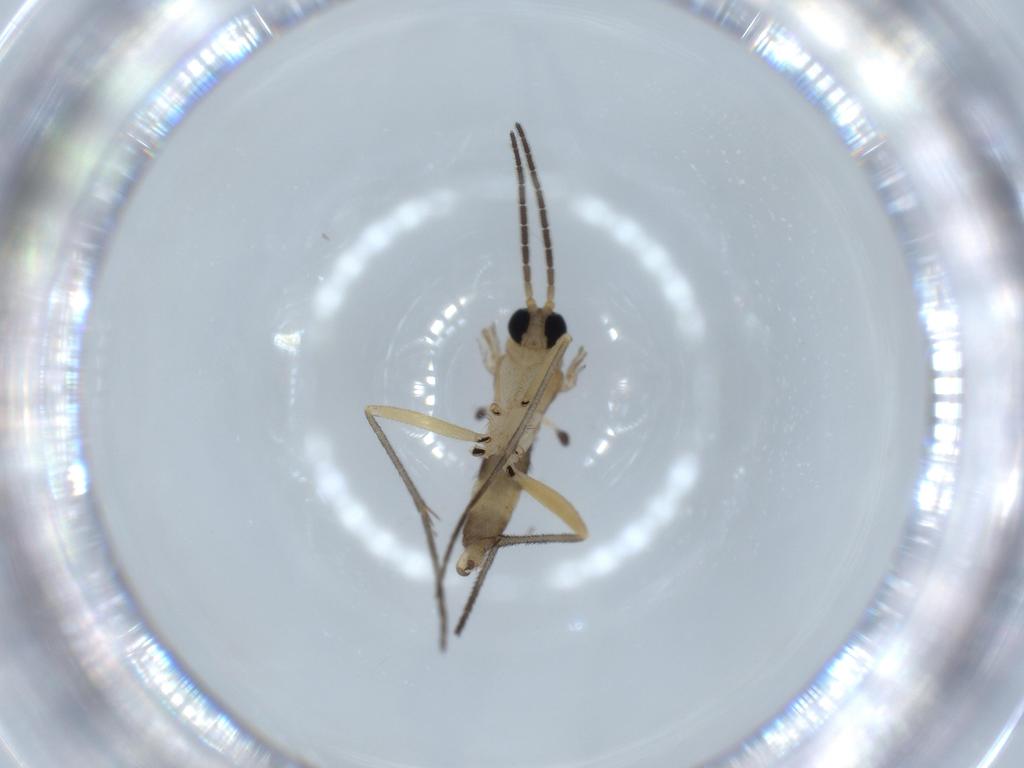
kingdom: Animalia
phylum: Arthropoda
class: Insecta
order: Diptera
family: Sciaridae
